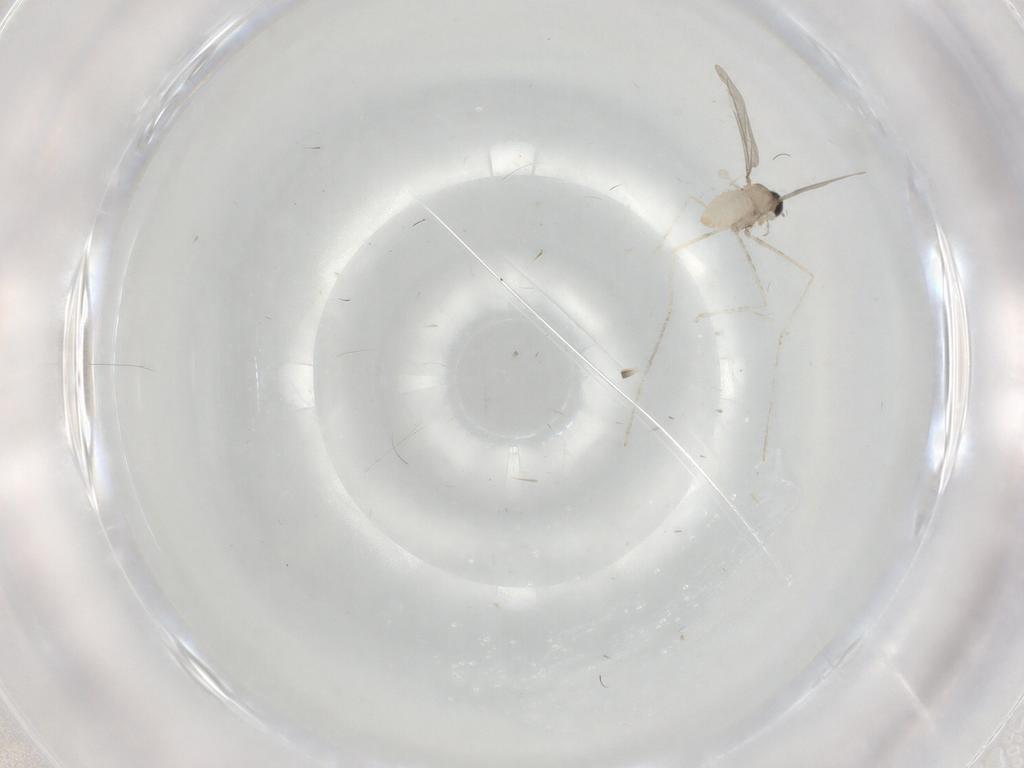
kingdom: Animalia
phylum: Arthropoda
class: Insecta
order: Diptera
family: Cecidomyiidae
